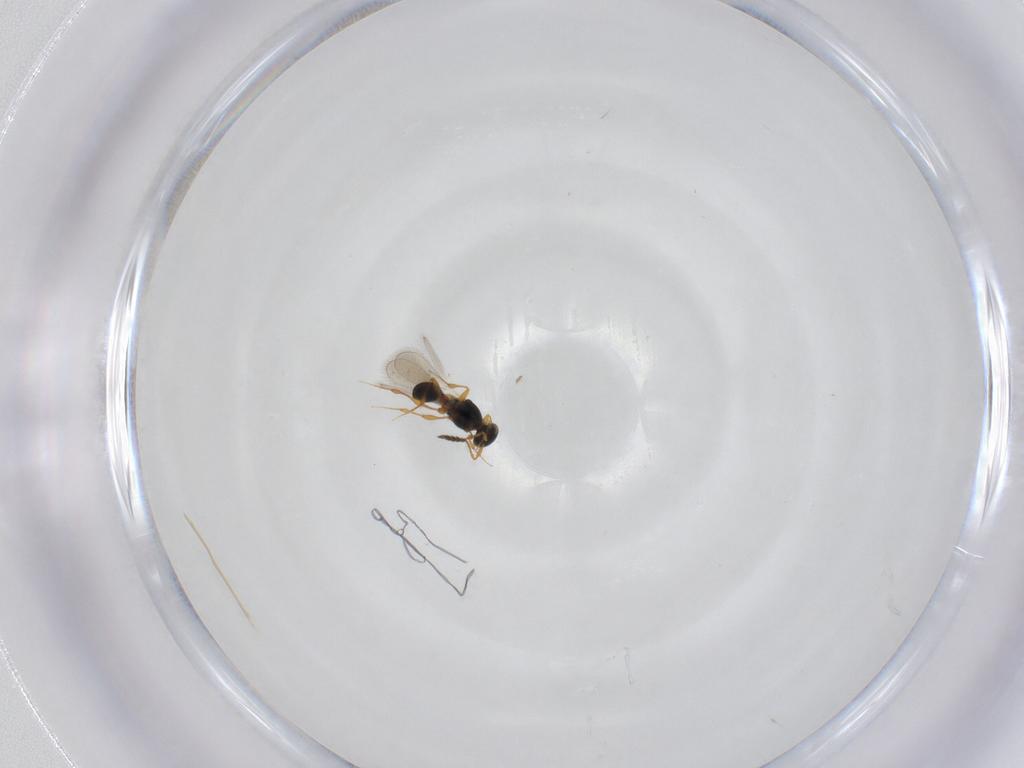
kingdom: Animalia
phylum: Arthropoda
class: Insecta
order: Hymenoptera
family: Platygastridae
